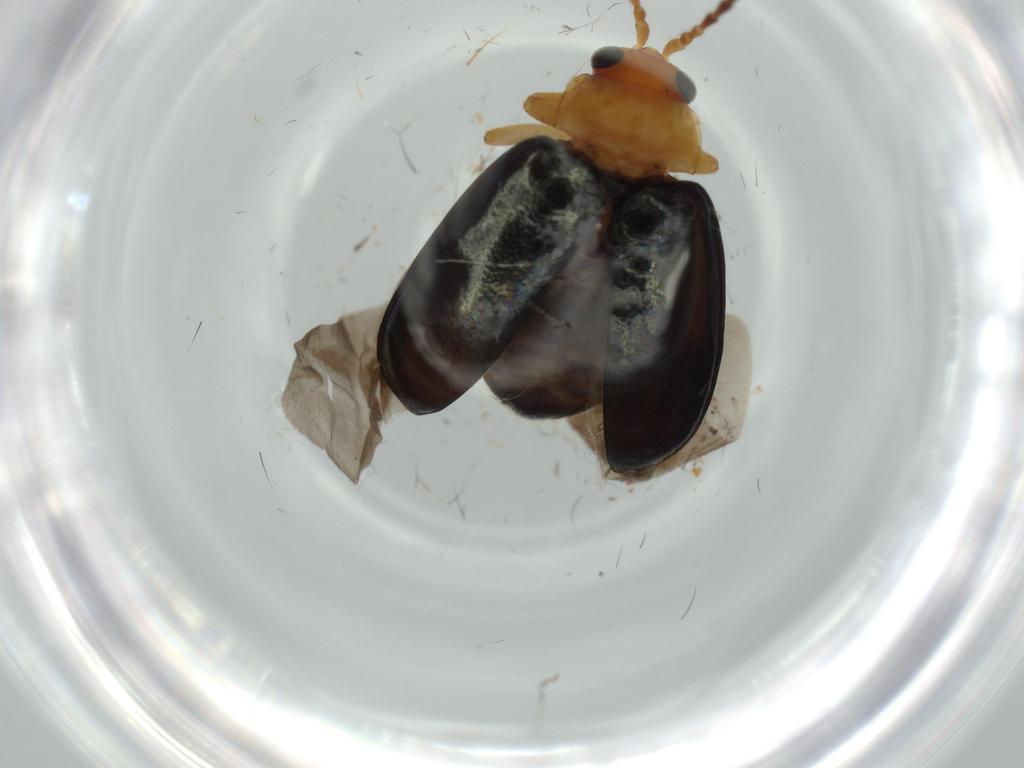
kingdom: Animalia
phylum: Arthropoda
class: Insecta
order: Coleoptera
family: Chrysomelidae
